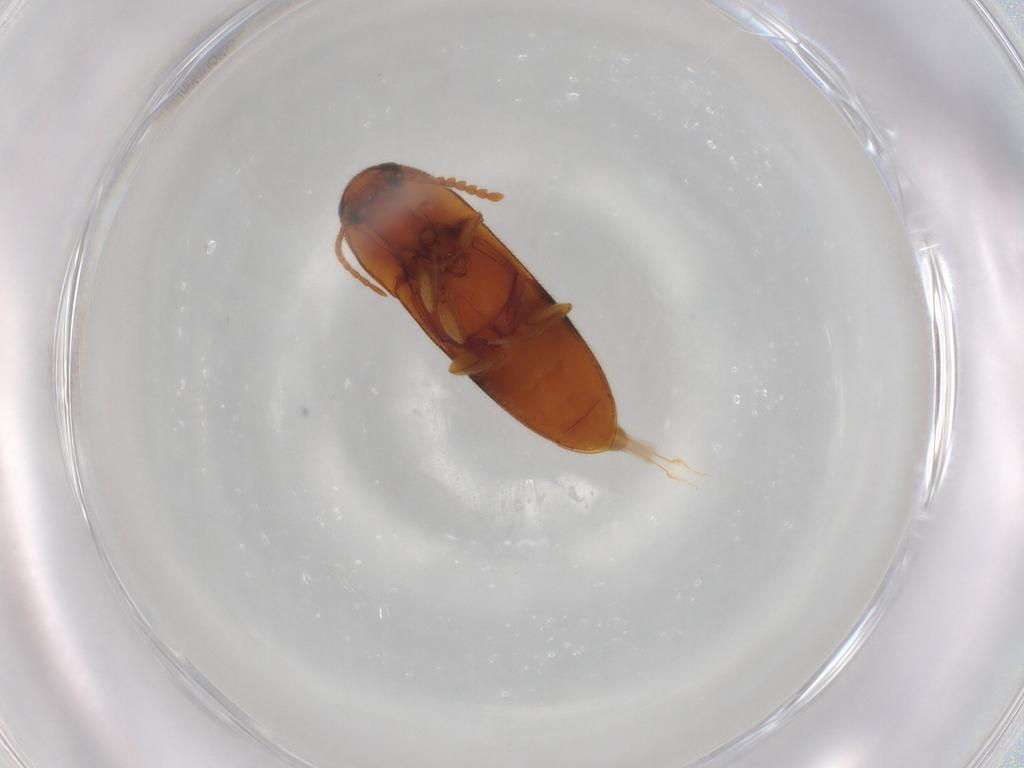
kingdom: Animalia
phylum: Arthropoda
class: Insecta
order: Coleoptera
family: Elateridae
